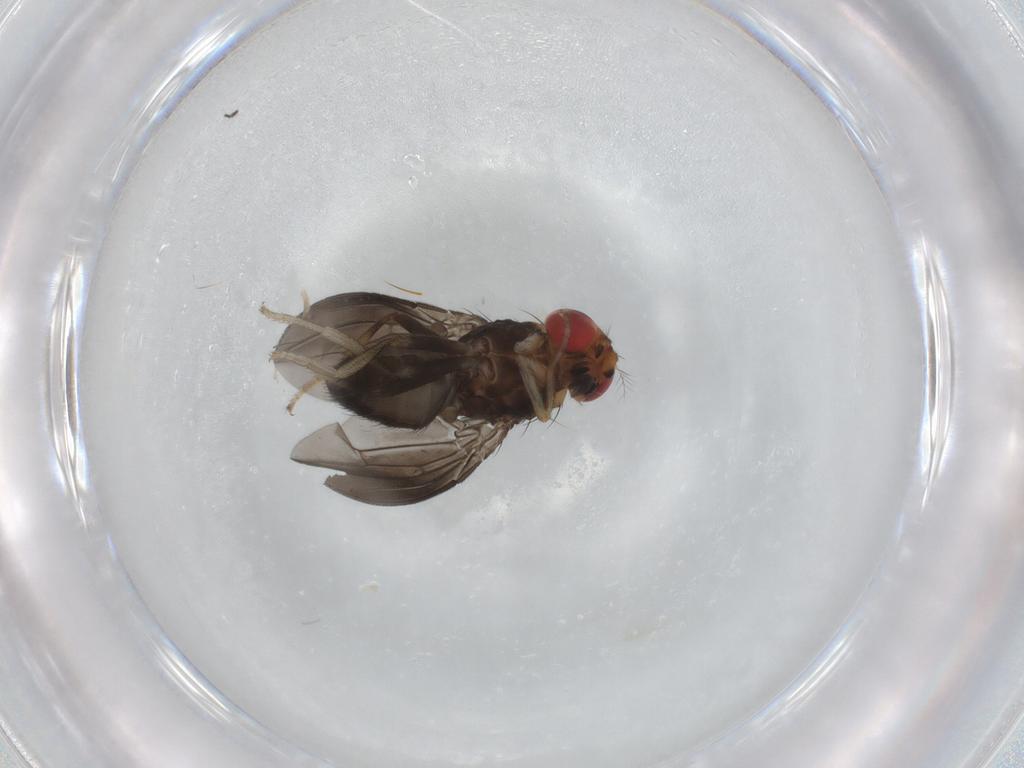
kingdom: Animalia
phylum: Arthropoda
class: Insecta
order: Diptera
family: Drosophilidae
